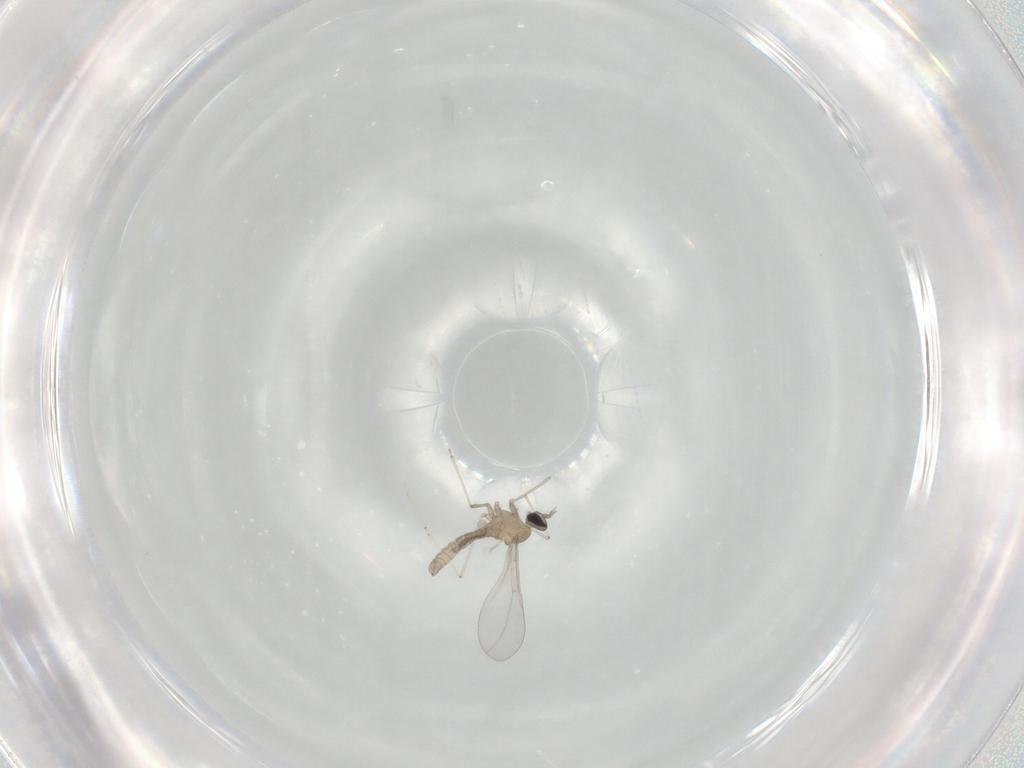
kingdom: Animalia
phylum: Arthropoda
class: Insecta
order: Diptera
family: Cecidomyiidae
